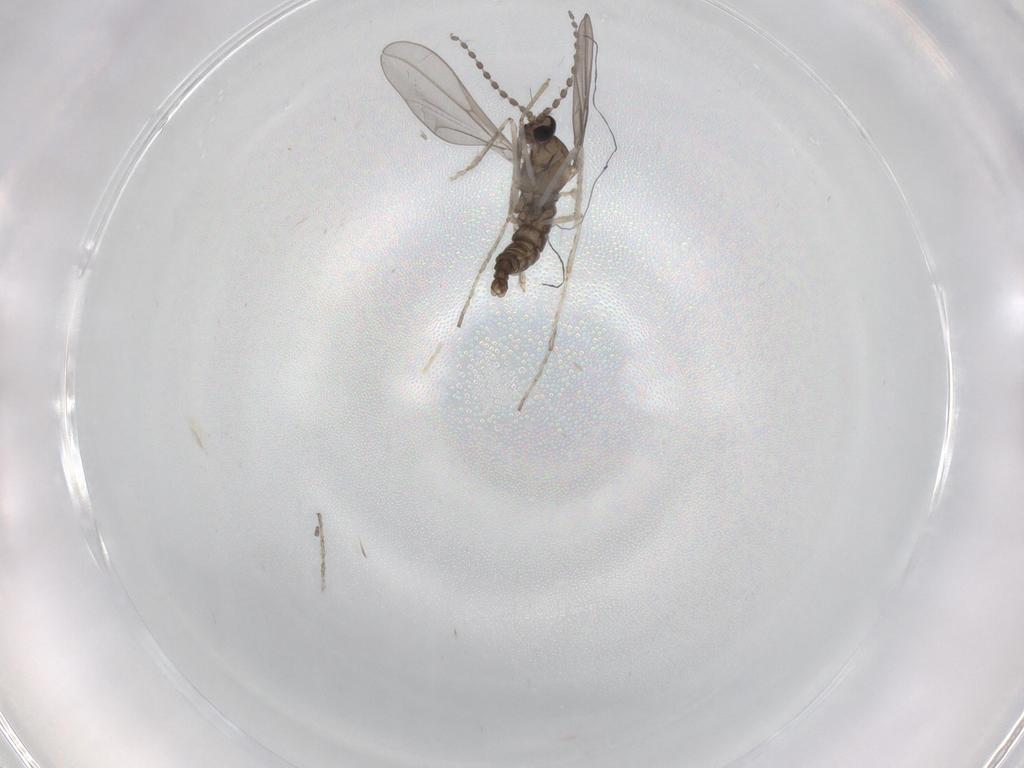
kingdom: Animalia
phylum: Arthropoda
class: Insecta
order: Diptera
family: Cecidomyiidae
